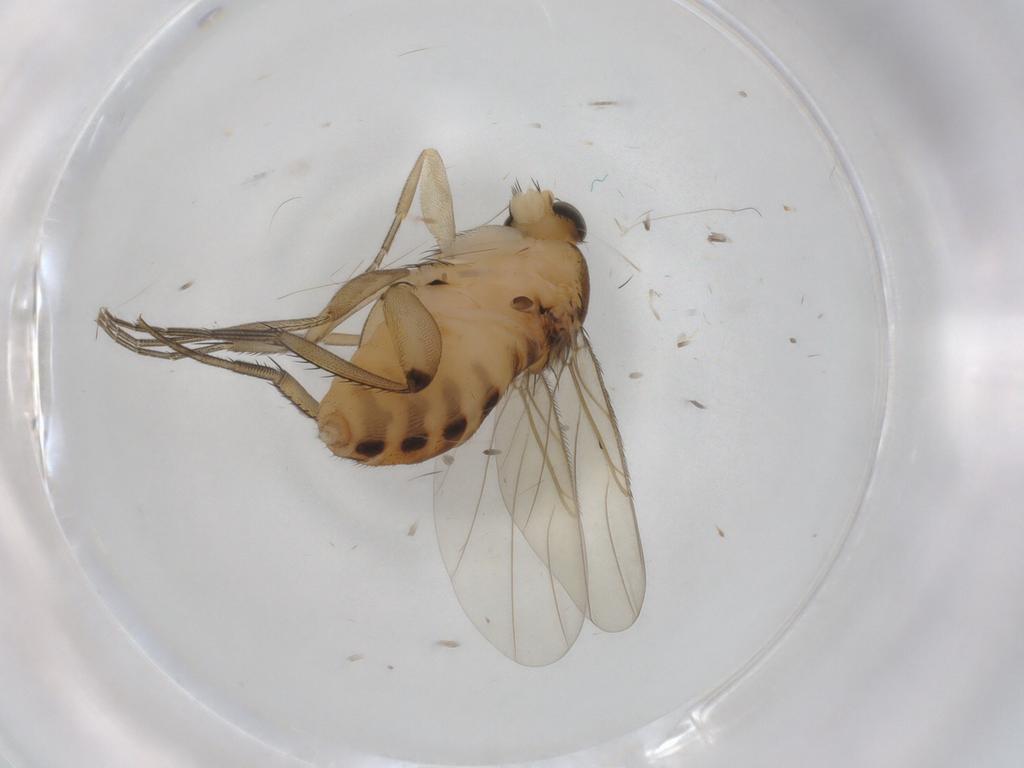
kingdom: Animalia
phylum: Arthropoda
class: Insecta
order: Diptera
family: Phoridae
